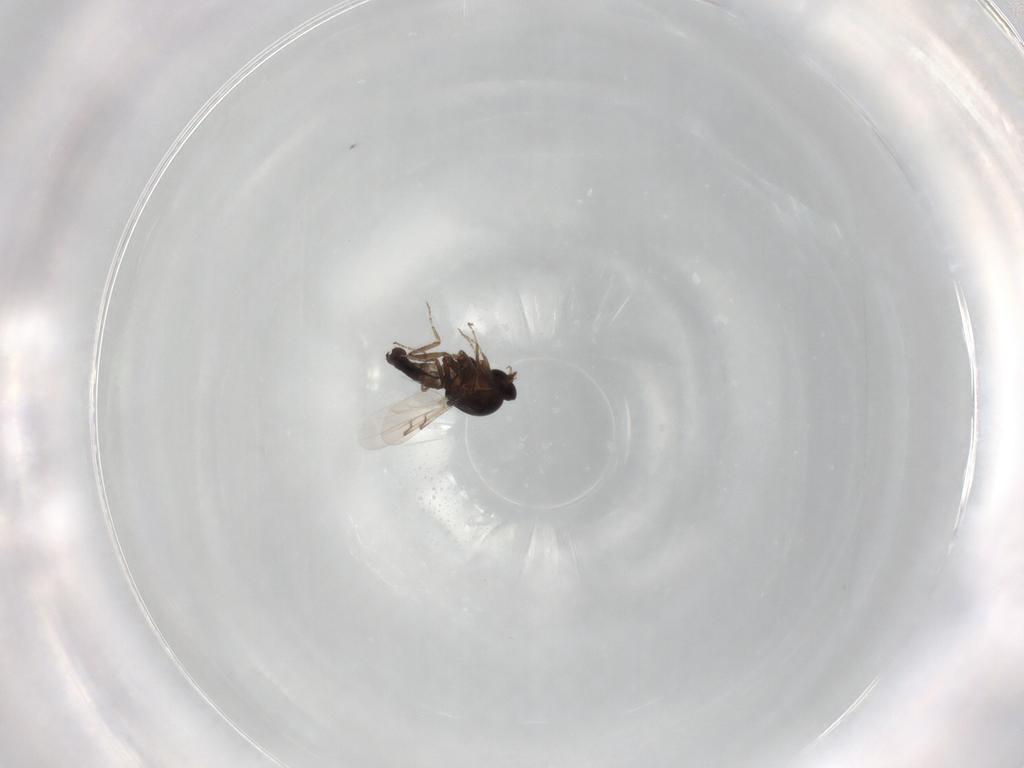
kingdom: Animalia
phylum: Arthropoda
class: Insecta
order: Diptera
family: Ceratopogonidae
